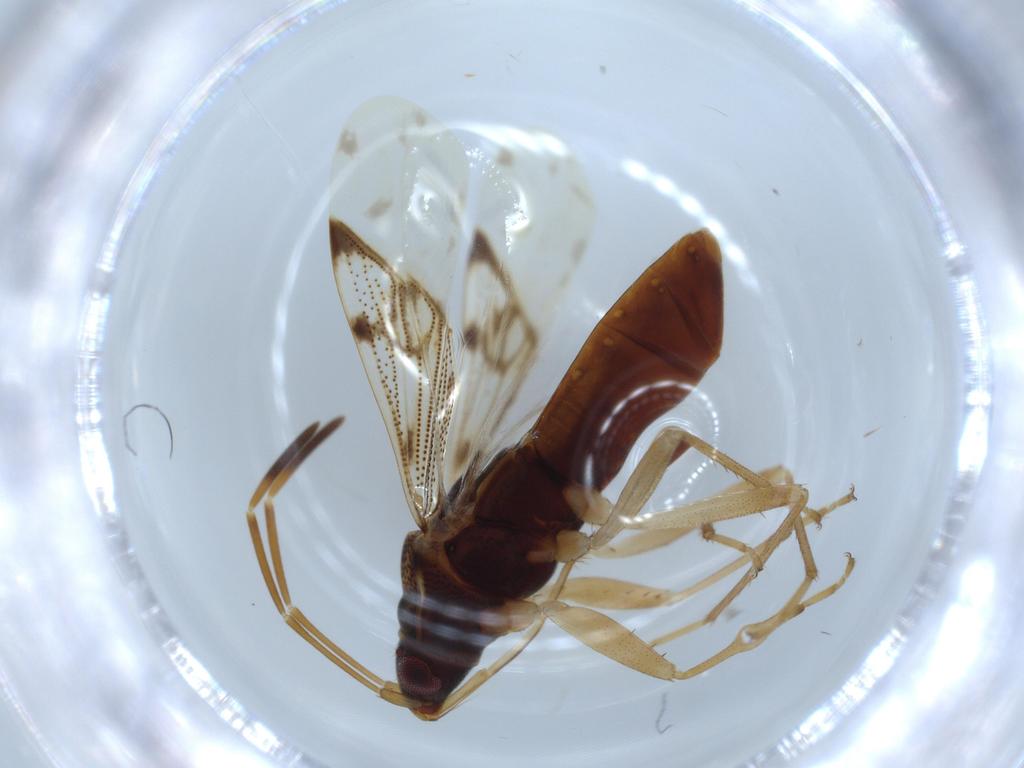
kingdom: Animalia
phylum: Arthropoda
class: Insecta
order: Hemiptera
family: Rhyparochromidae
